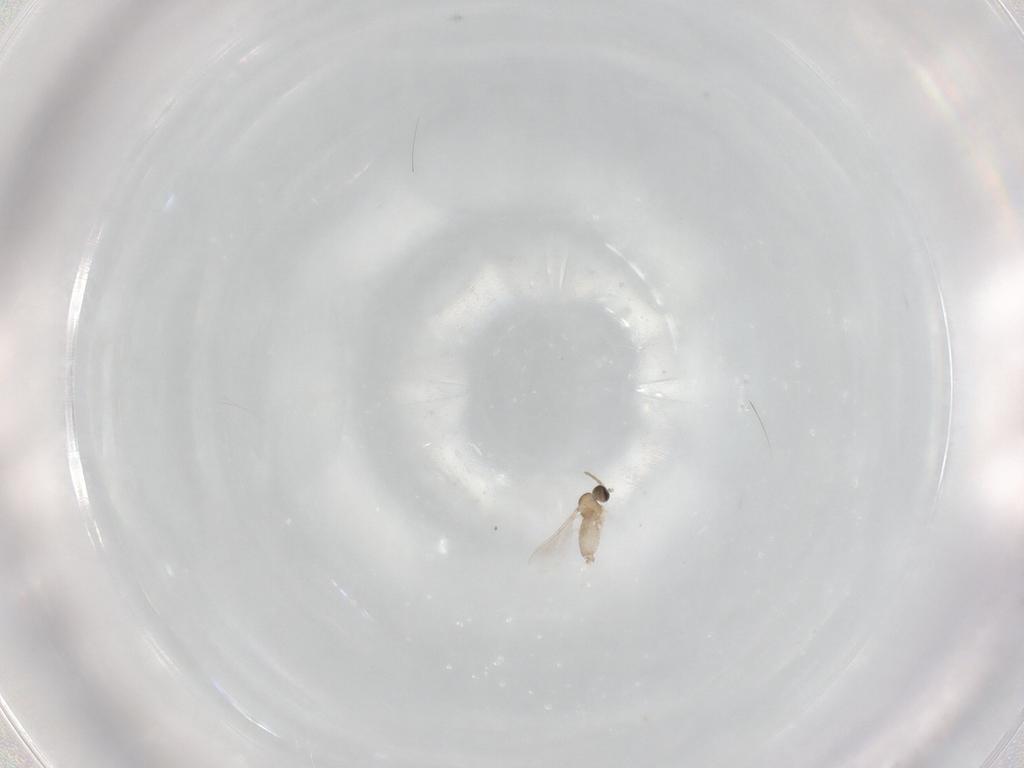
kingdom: Animalia
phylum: Arthropoda
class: Insecta
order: Diptera
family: Cecidomyiidae
